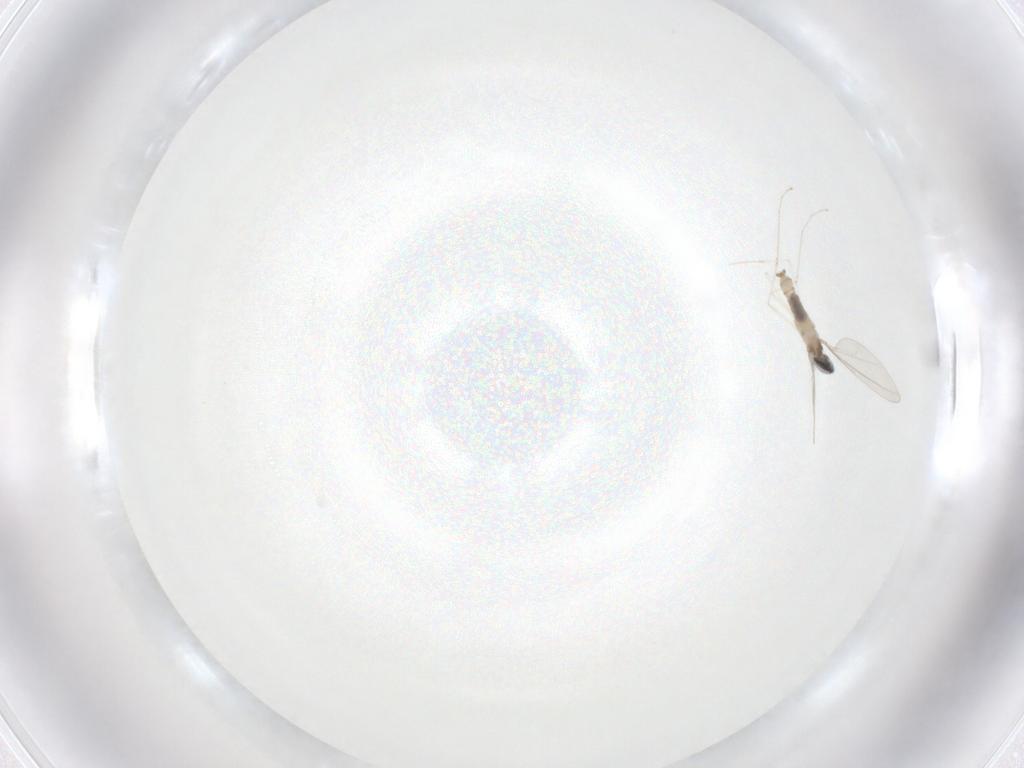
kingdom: Animalia
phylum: Arthropoda
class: Insecta
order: Diptera
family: Cecidomyiidae
